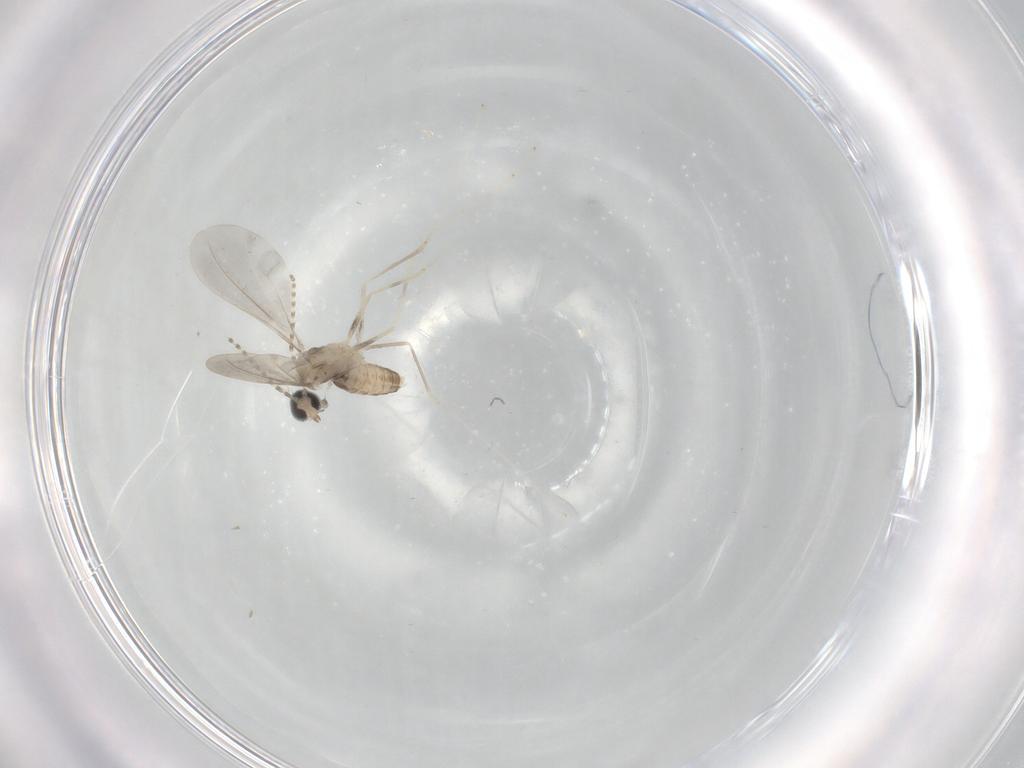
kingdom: Animalia
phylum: Arthropoda
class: Insecta
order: Diptera
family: Cecidomyiidae
